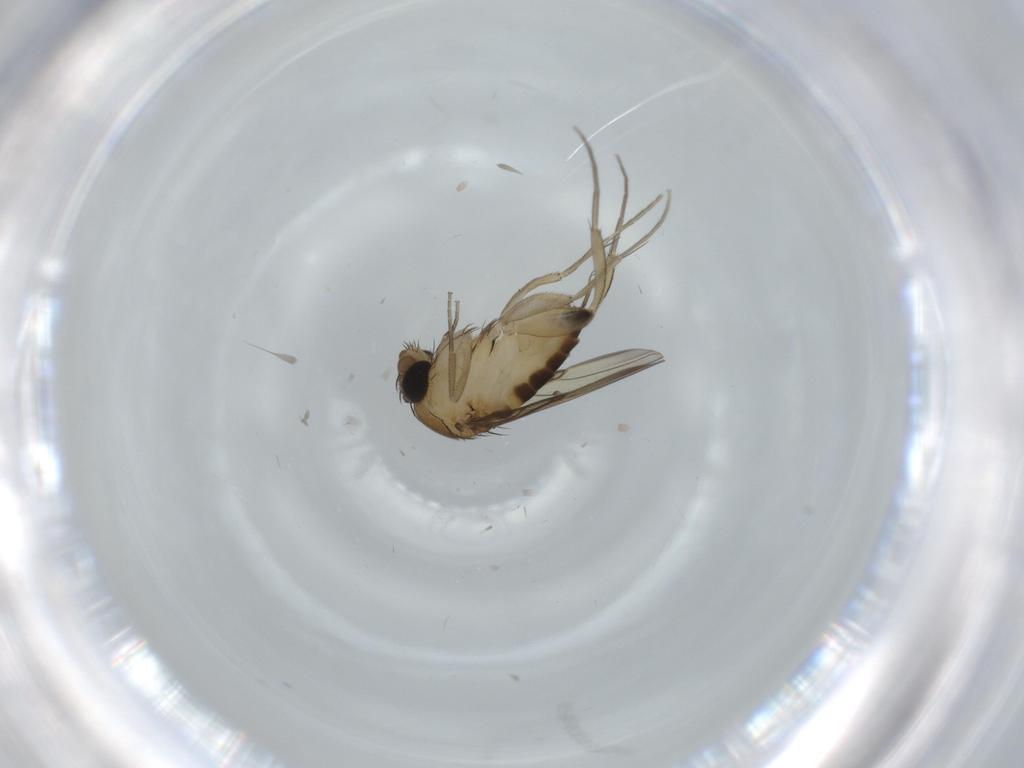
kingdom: Animalia
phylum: Arthropoda
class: Insecta
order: Diptera
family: Phoridae
